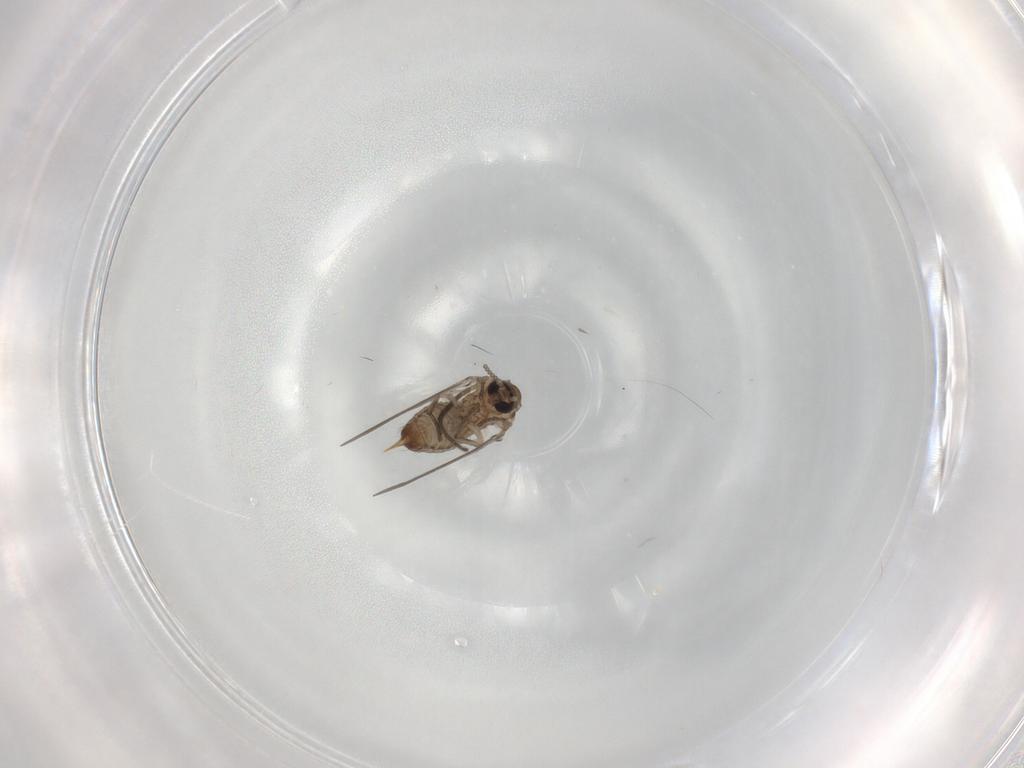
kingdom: Animalia
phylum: Arthropoda
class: Insecta
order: Diptera
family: Sciaridae
